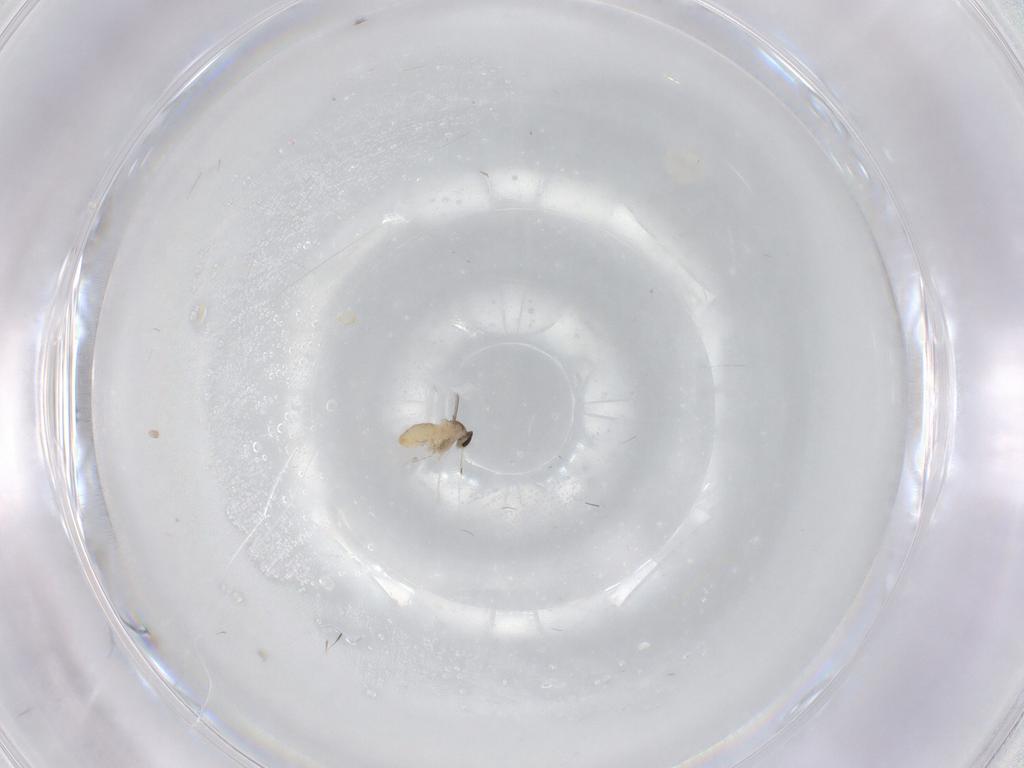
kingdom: Animalia
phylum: Arthropoda
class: Insecta
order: Diptera
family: Cecidomyiidae
